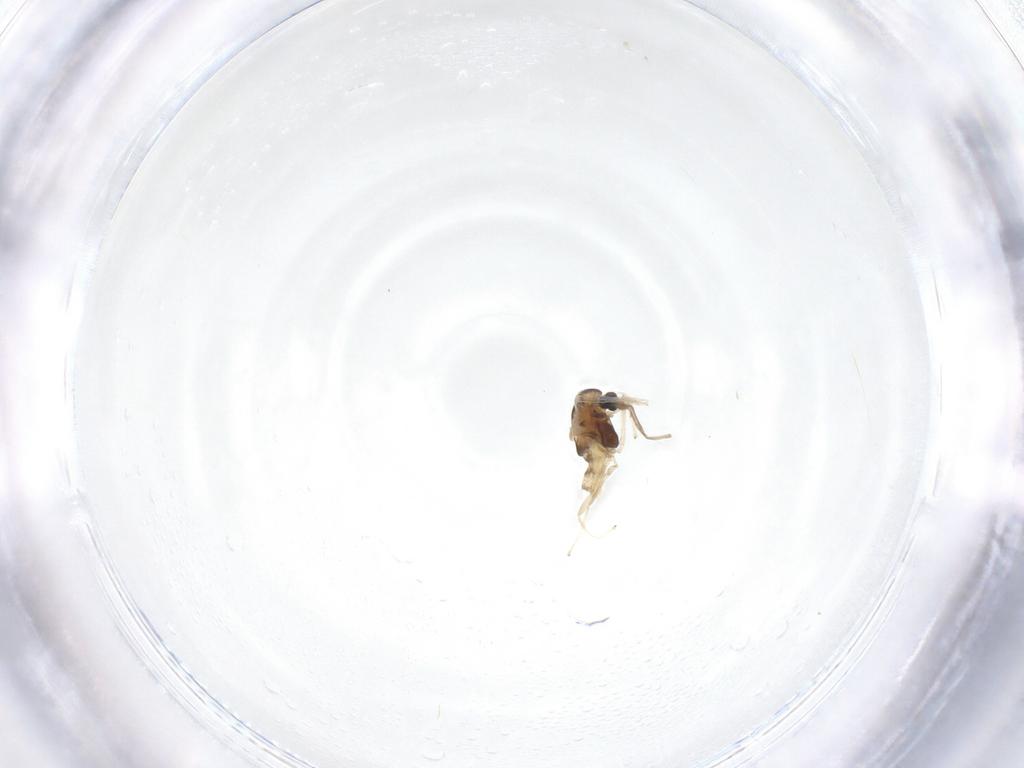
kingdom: Animalia
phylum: Arthropoda
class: Insecta
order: Diptera
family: Chironomidae
